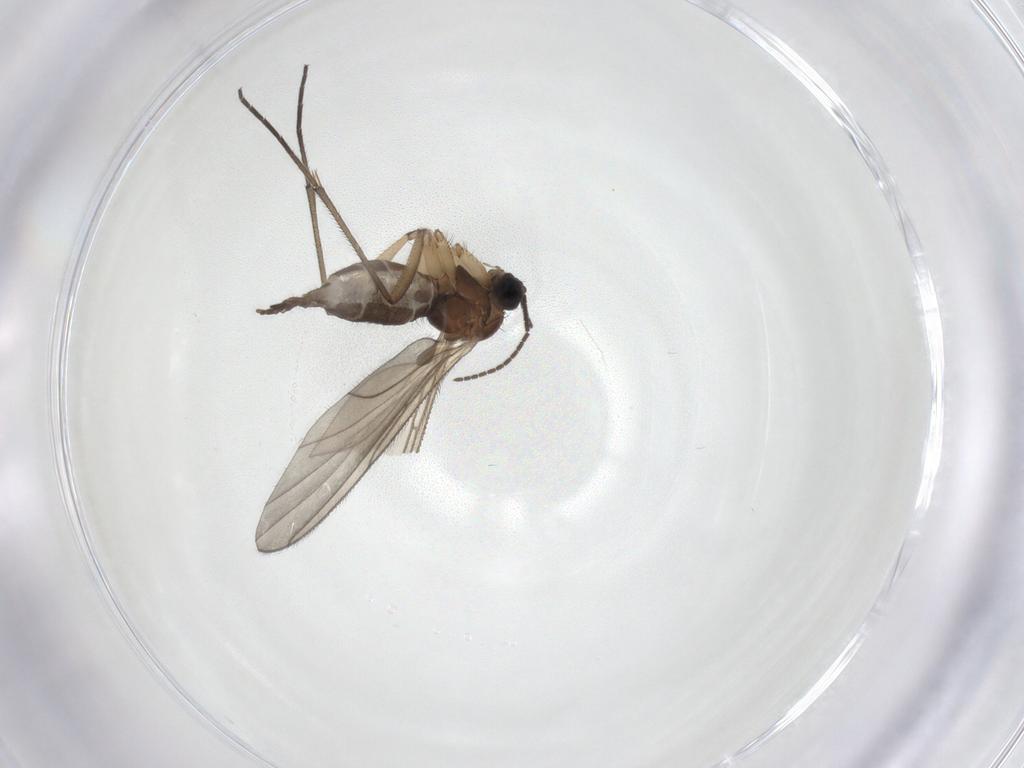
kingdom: Animalia
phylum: Arthropoda
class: Insecta
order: Diptera
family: Sciaridae
